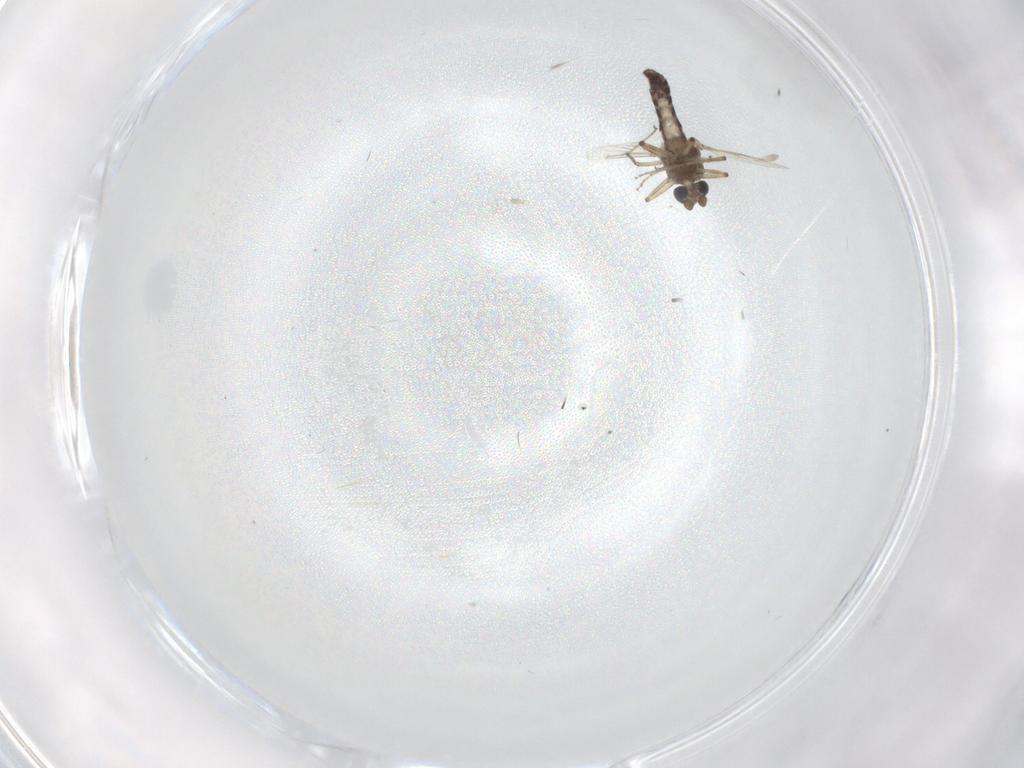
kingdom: Animalia
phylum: Arthropoda
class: Insecta
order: Diptera
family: Ceratopogonidae
